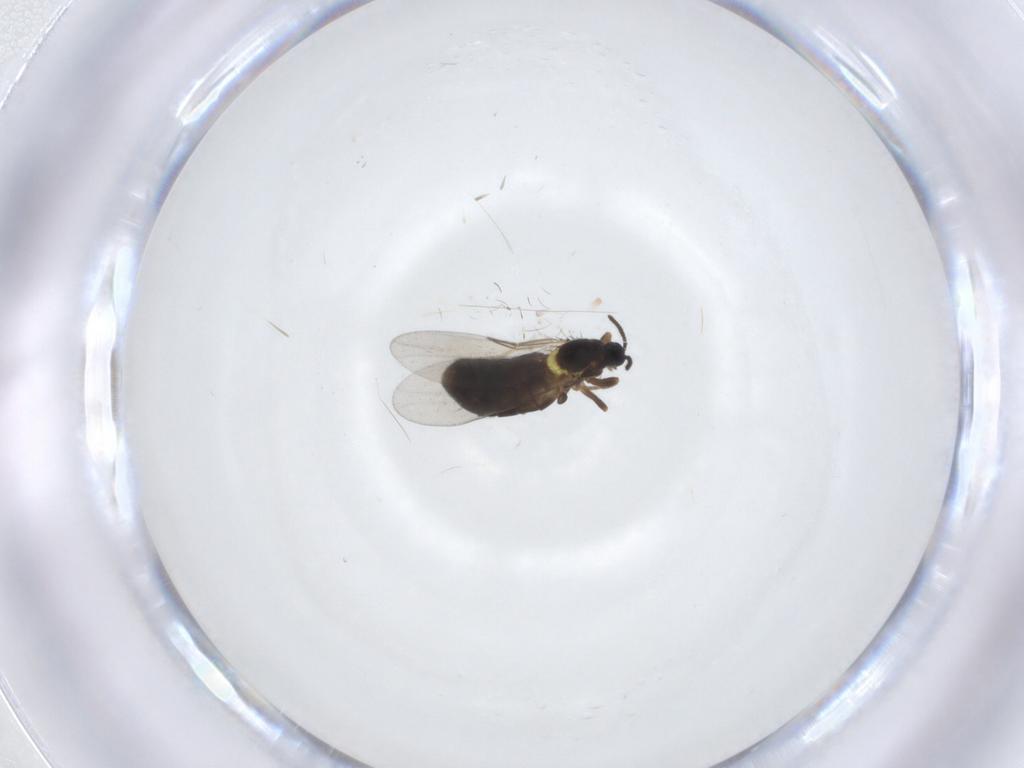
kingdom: Animalia
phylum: Arthropoda
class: Insecta
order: Diptera
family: Scatopsidae
